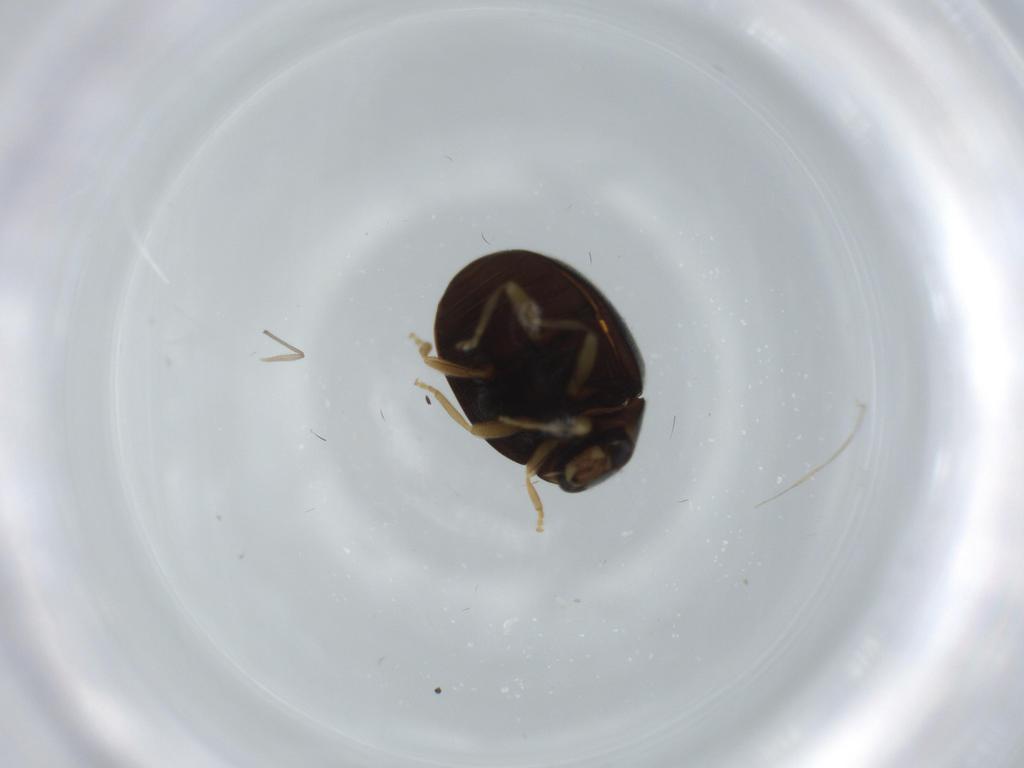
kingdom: Animalia
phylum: Arthropoda
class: Insecta
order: Coleoptera
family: Coccinellidae
